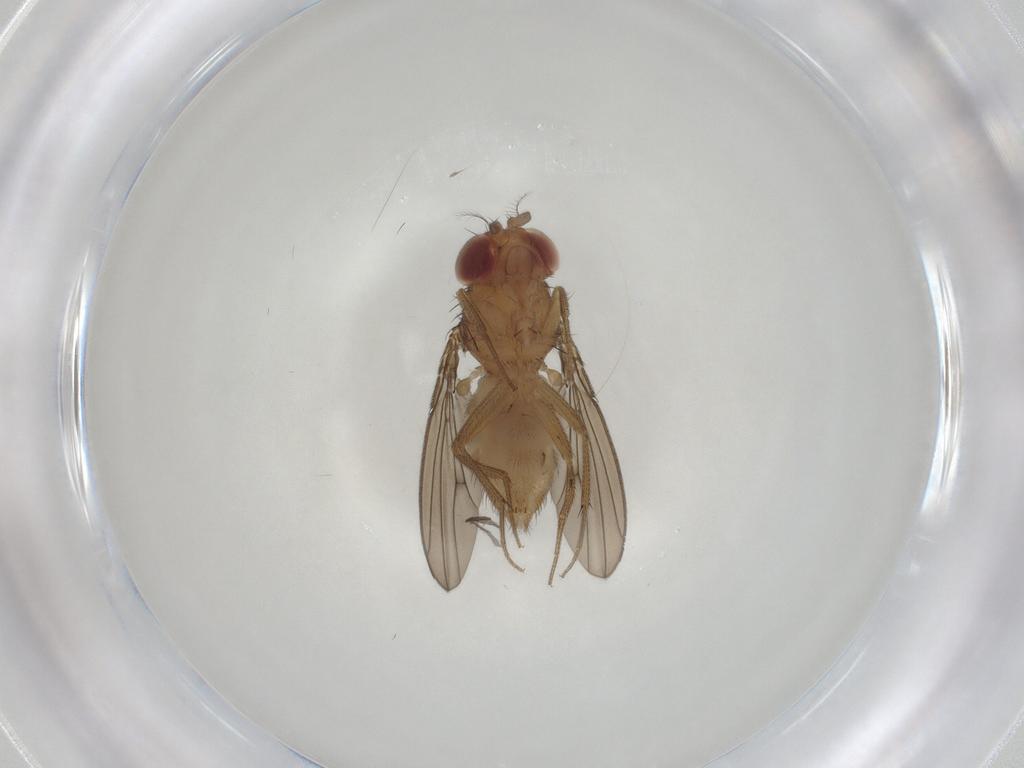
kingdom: Animalia
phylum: Arthropoda
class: Insecta
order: Diptera
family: Drosophilidae
